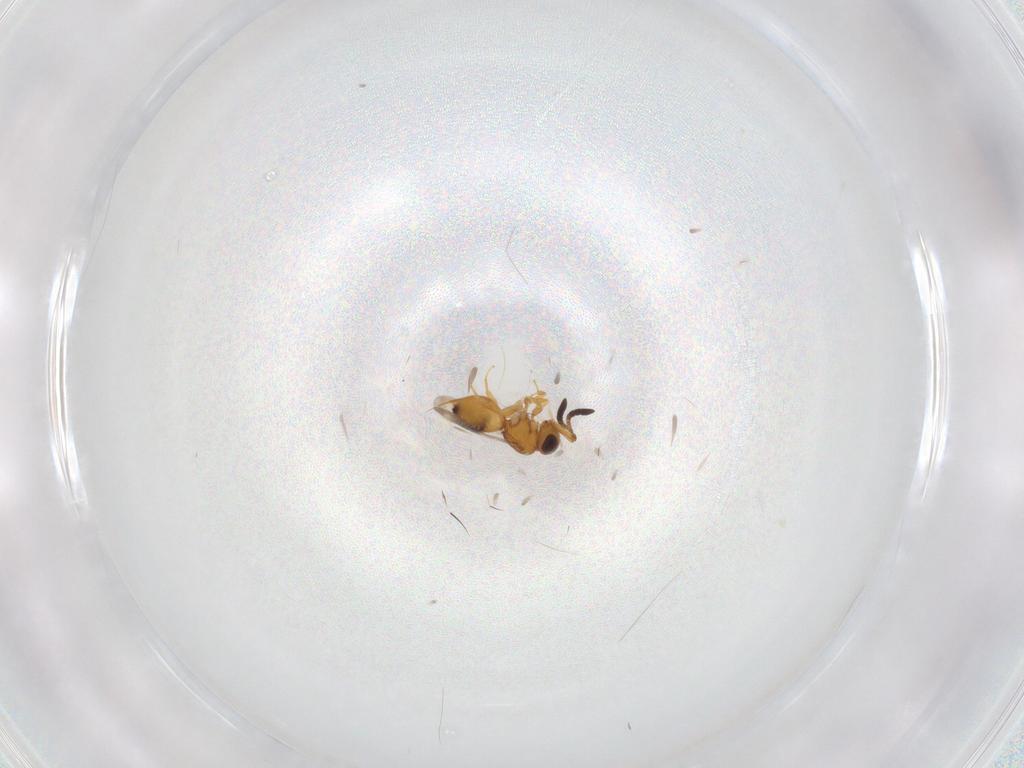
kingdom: Animalia
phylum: Arthropoda
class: Insecta
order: Hymenoptera
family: Ceraphronidae
